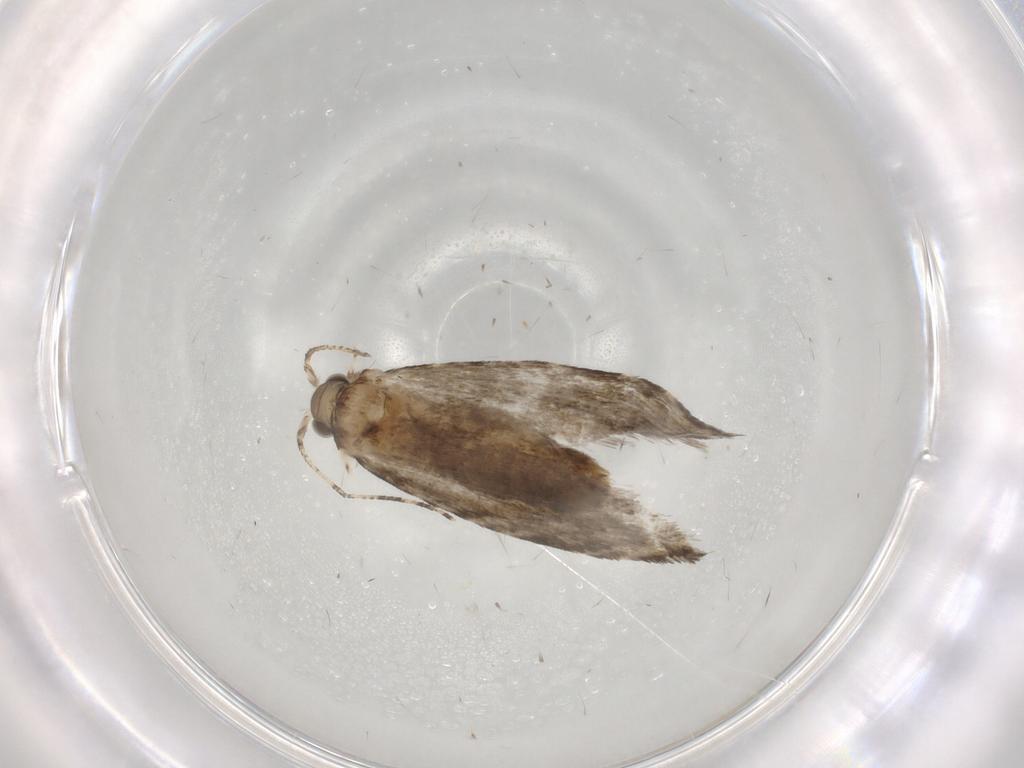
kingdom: Animalia
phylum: Arthropoda
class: Insecta
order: Lepidoptera
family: Tineidae
